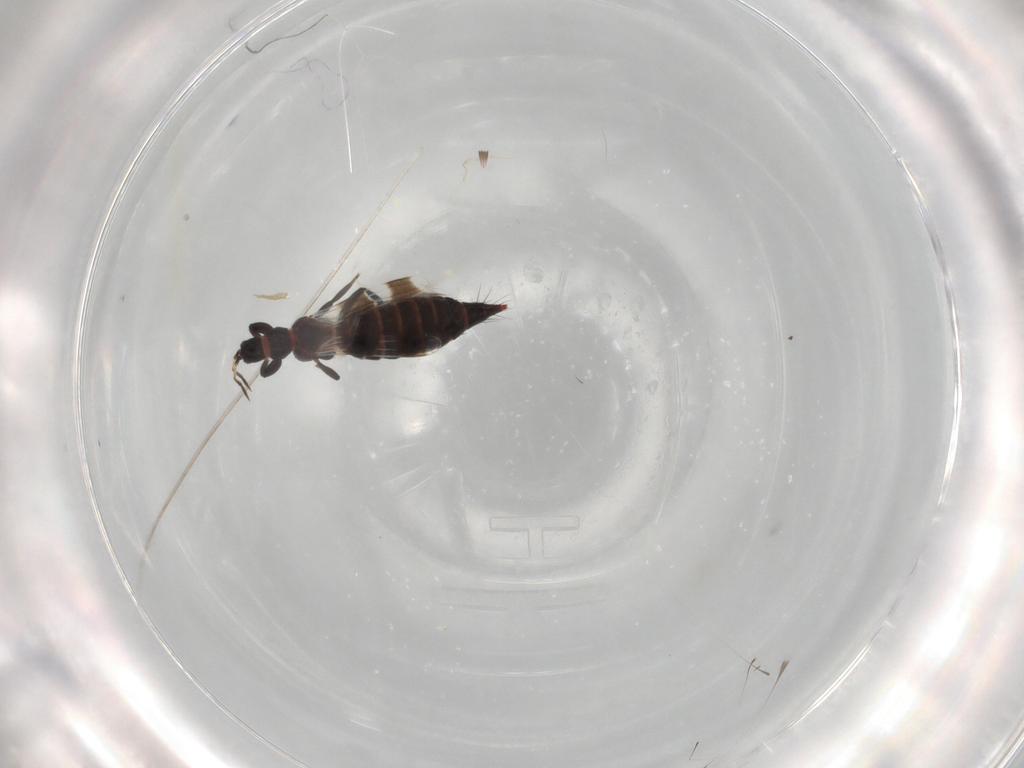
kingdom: Animalia
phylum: Arthropoda
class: Insecta
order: Thysanoptera
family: Aeolothripidae
